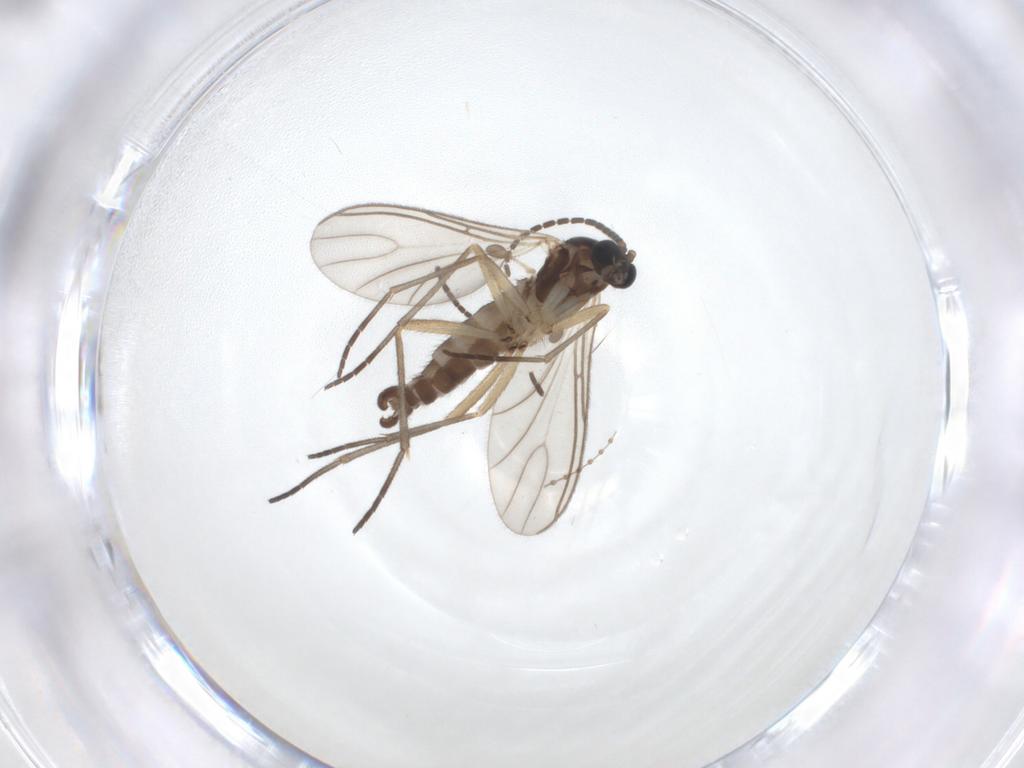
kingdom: Animalia
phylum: Arthropoda
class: Insecta
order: Diptera
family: Sciaridae
